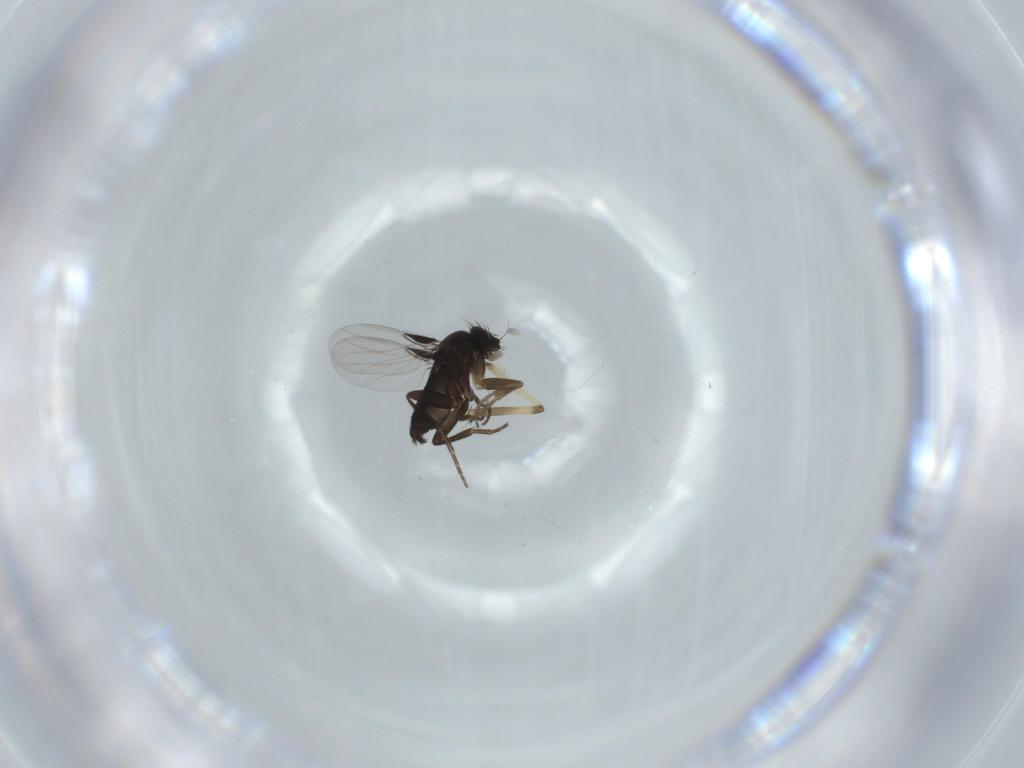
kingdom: Animalia
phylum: Arthropoda
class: Insecta
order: Diptera
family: Phoridae
